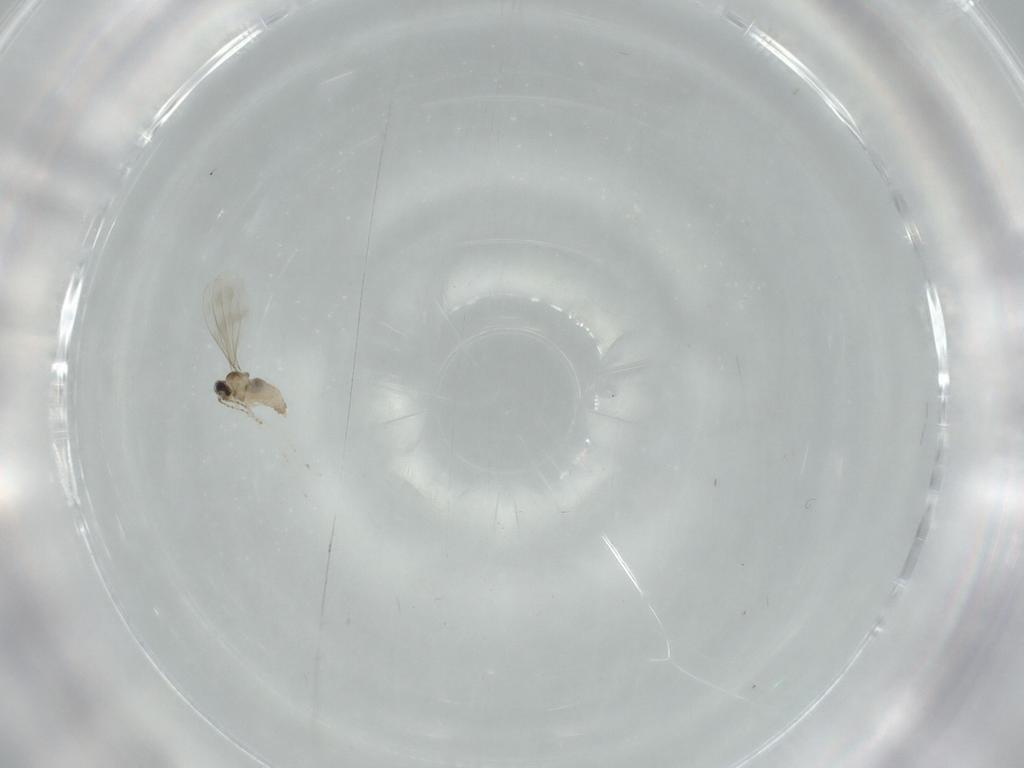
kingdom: Animalia
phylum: Arthropoda
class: Insecta
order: Diptera
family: Cecidomyiidae
